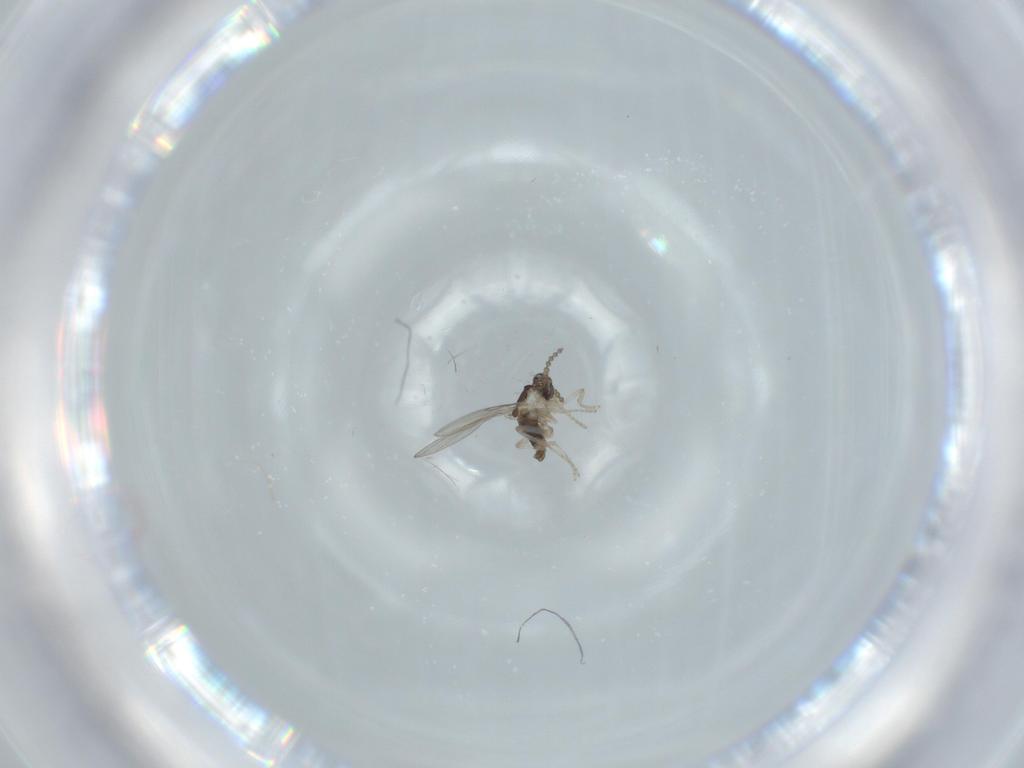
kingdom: Animalia
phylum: Arthropoda
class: Insecta
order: Diptera
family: Cecidomyiidae
